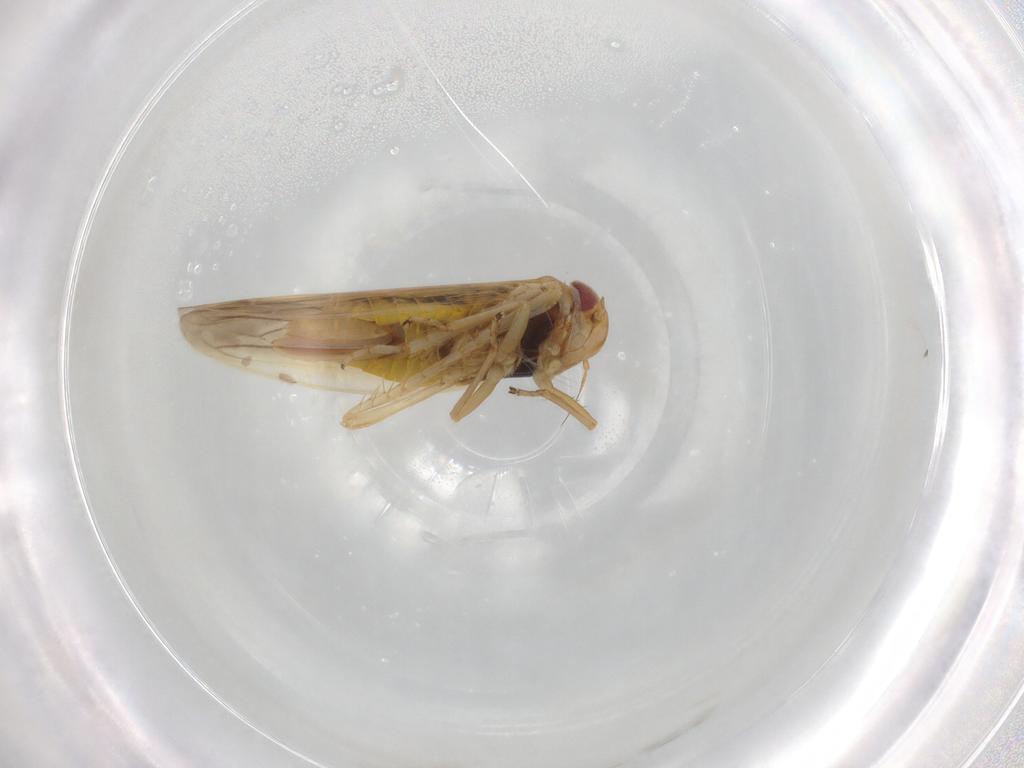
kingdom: Animalia
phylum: Arthropoda
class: Insecta
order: Hemiptera
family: Cicadellidae
